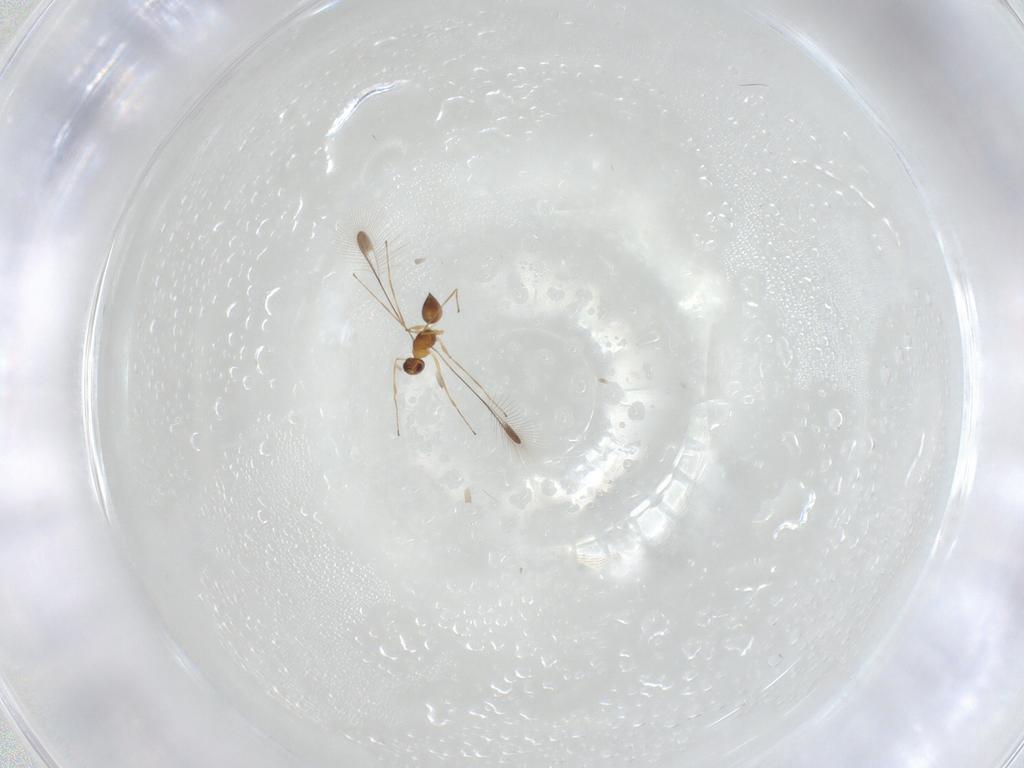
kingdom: Animalia
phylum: Arthropoda
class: Insecta
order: Hymenoptera
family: Mymaridae
